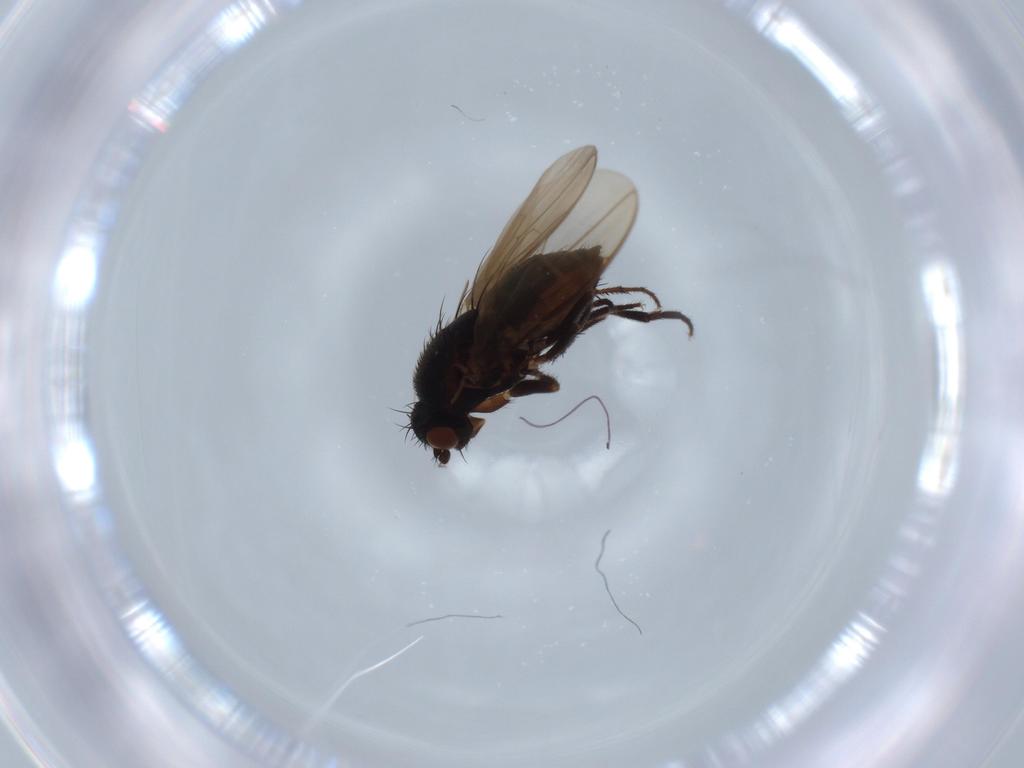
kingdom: Animalia
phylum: Arthropoda
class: Insecta
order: Diptera
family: Sphaeroceridae
